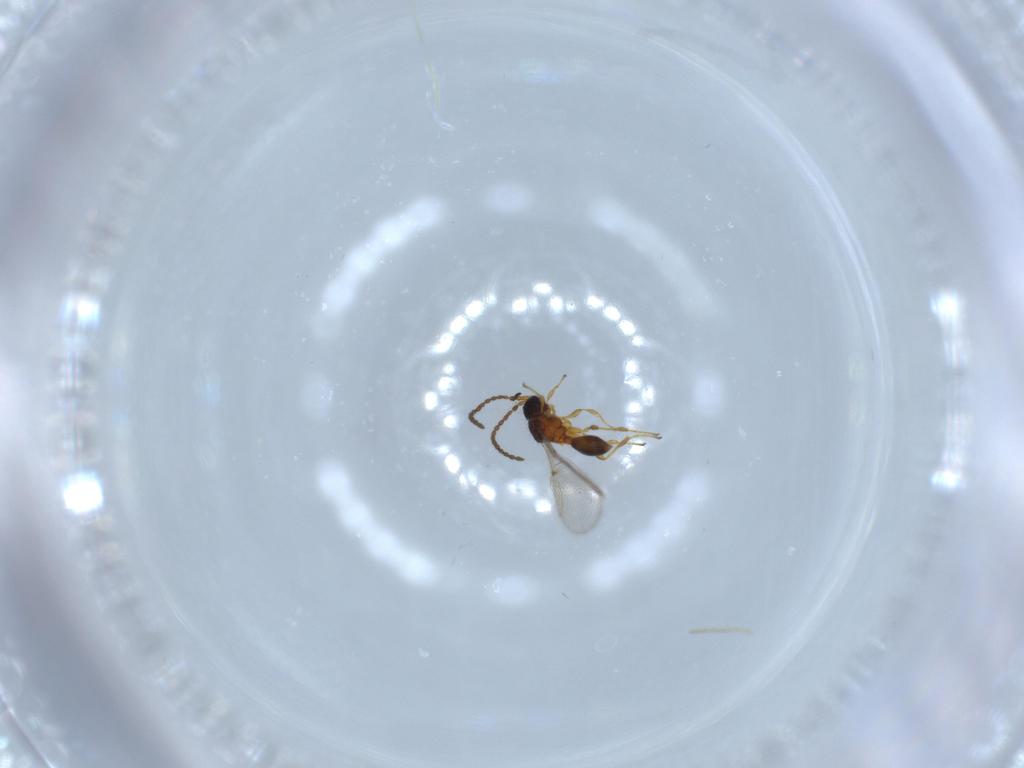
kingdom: Animalia
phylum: Arthropoda
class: Insecta
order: Hymenoptera
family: Diapriidae
